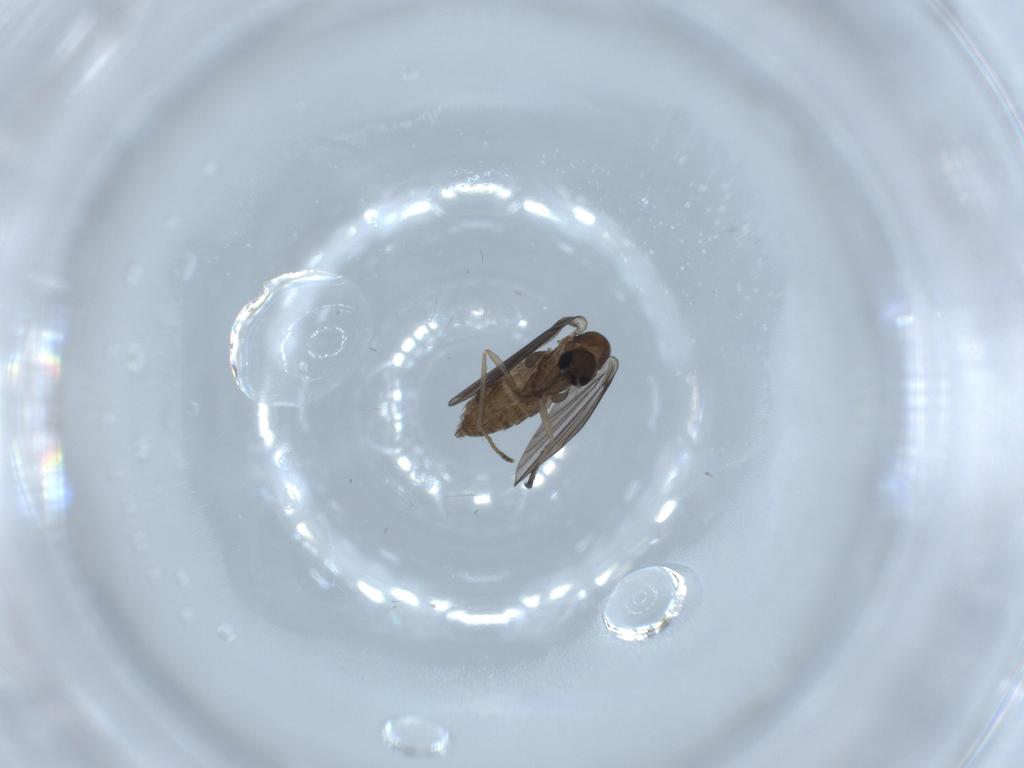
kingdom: Animalia
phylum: Arthropoda
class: Insecta
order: Diptera
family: Psychodidae
